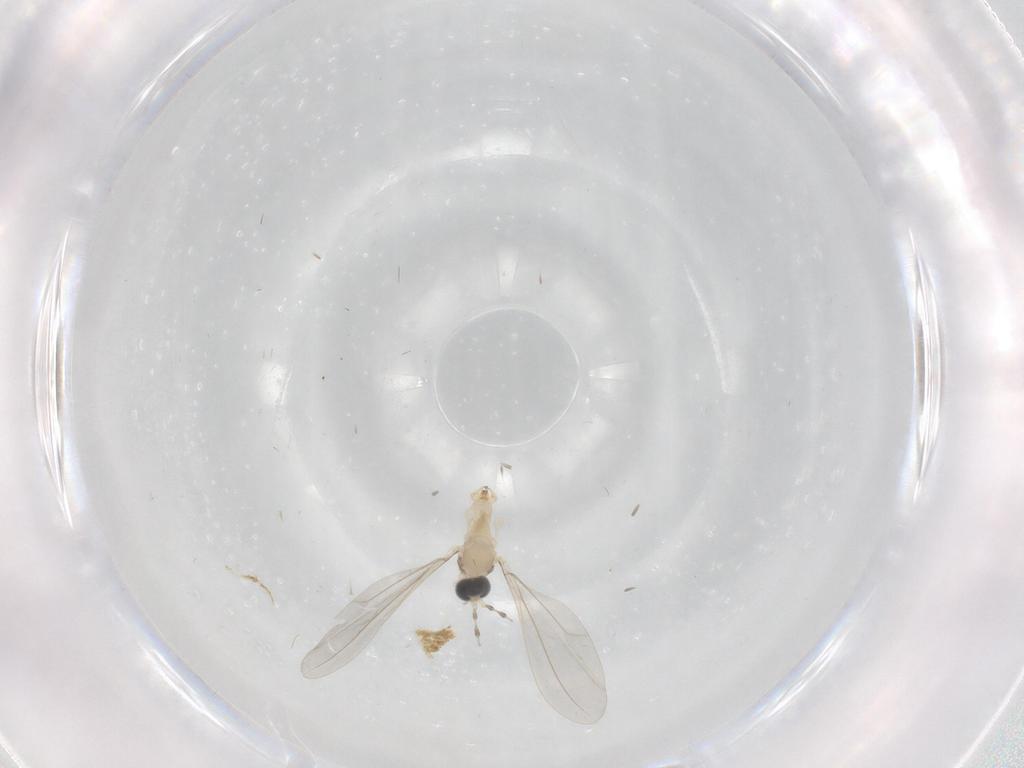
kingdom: Animalia
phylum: Arthropoda
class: Insecta
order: Diptera
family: Cecidomyiidae
